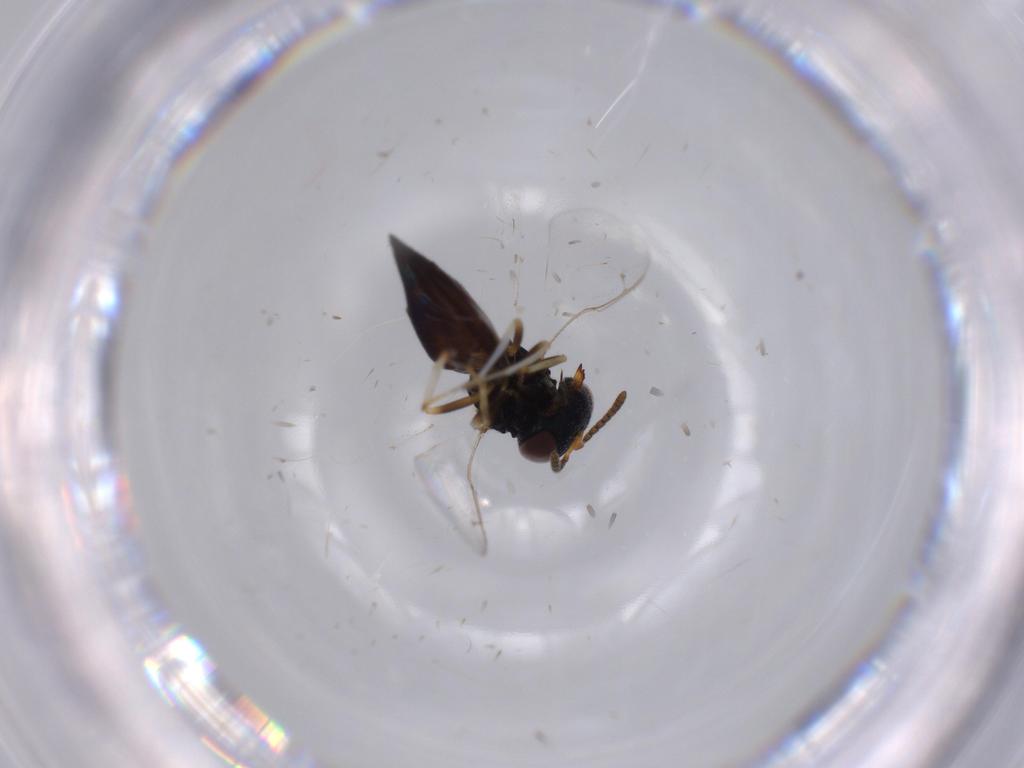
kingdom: Animalia
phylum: Arthropoda
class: Insecta
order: Hymenoptera
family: Pteromalidae
